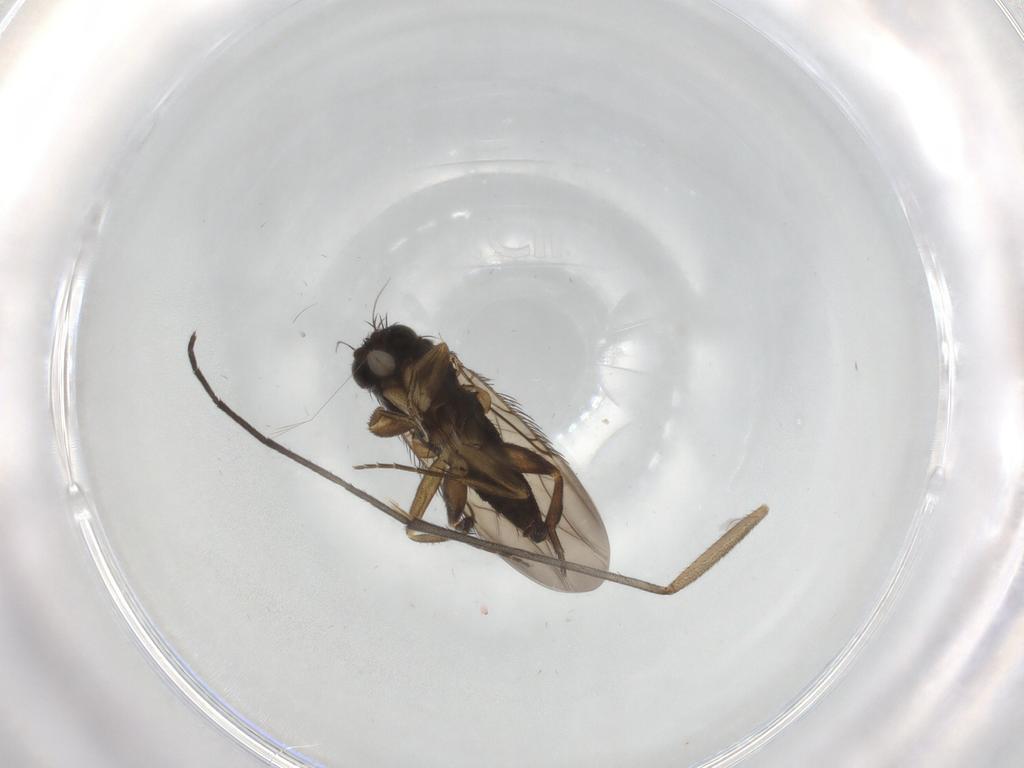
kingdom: Animalia
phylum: Arthropoda
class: Insecta
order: Diptera
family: Phoridae
